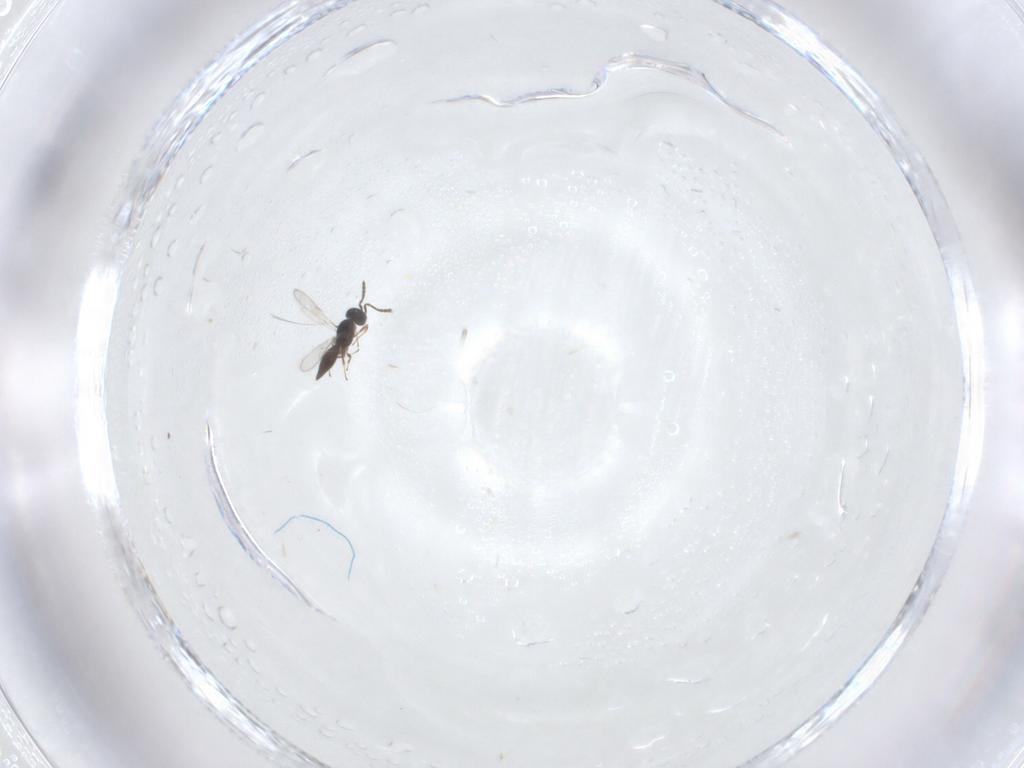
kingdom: Animalia
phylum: Arthropoda
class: Insecta
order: Hymenoptera
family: Scelionidae
